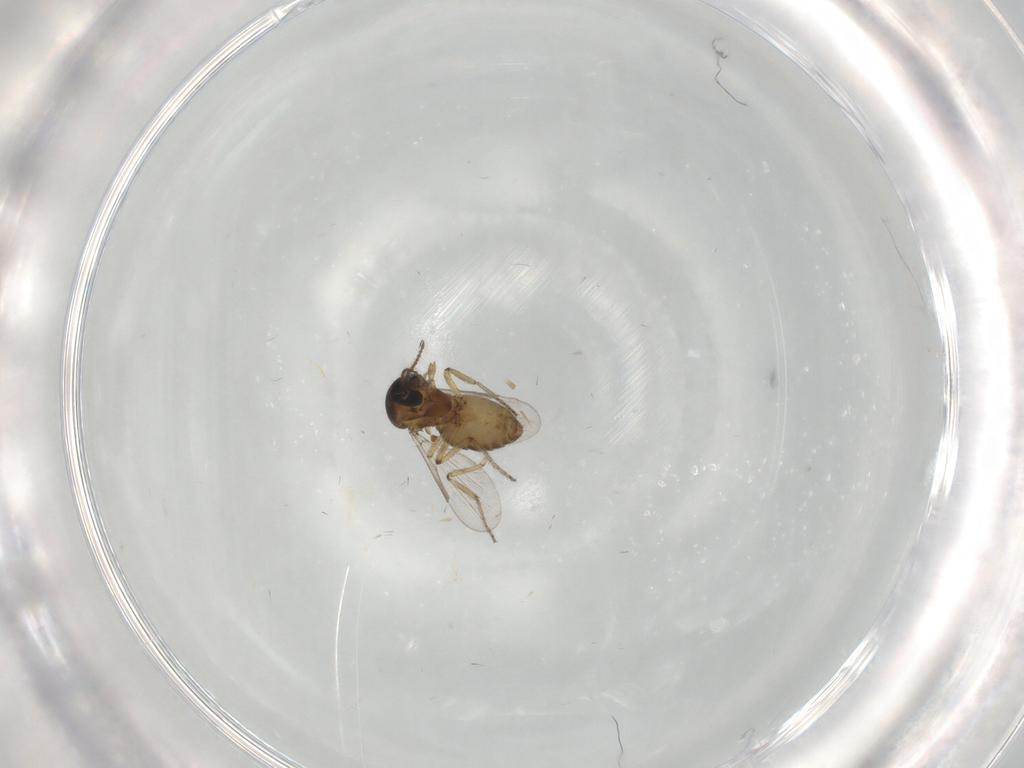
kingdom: Animalia
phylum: Arthropoda
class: Insecta
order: Diptera
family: Ceratopogonidae
